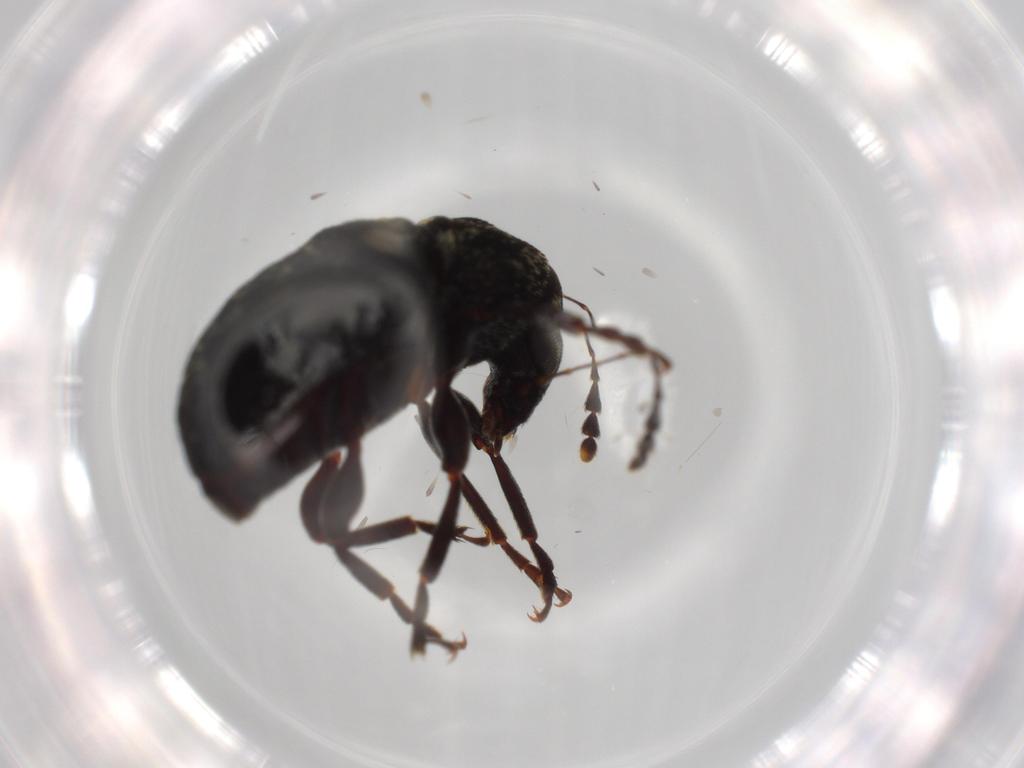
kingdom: Animalia
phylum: Arthropoda
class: Insecta
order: Coleoptera
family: Anthribidae
